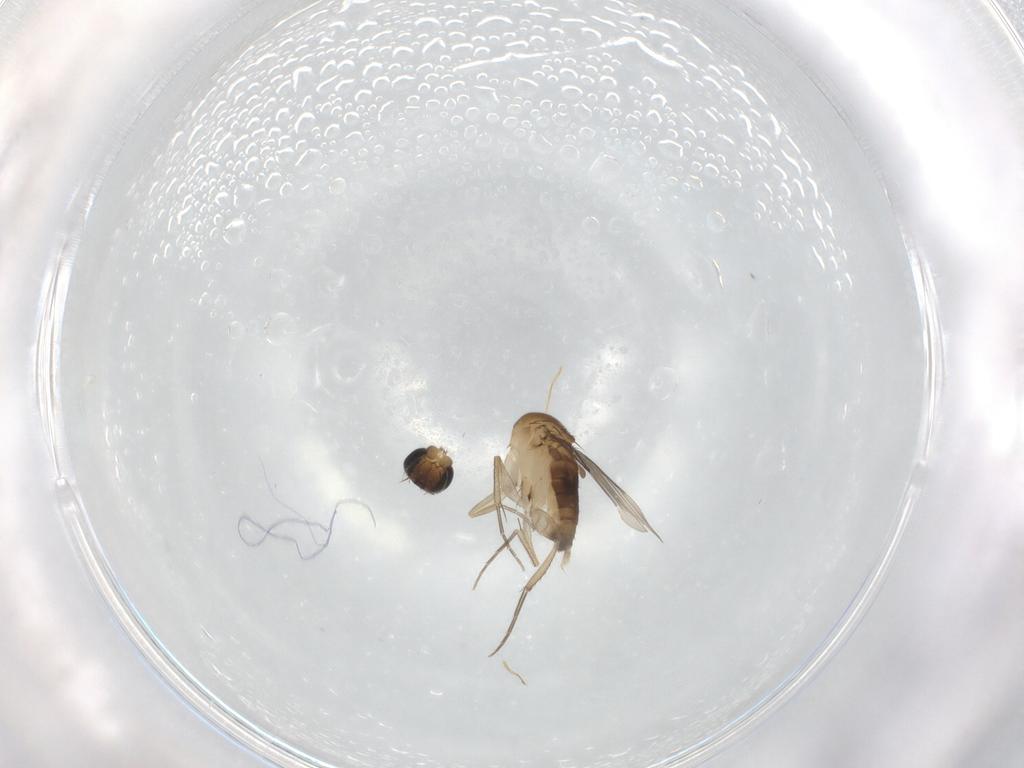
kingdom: Animalia
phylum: Arthropoda
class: Insecta
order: Diptera
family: Phoridae
